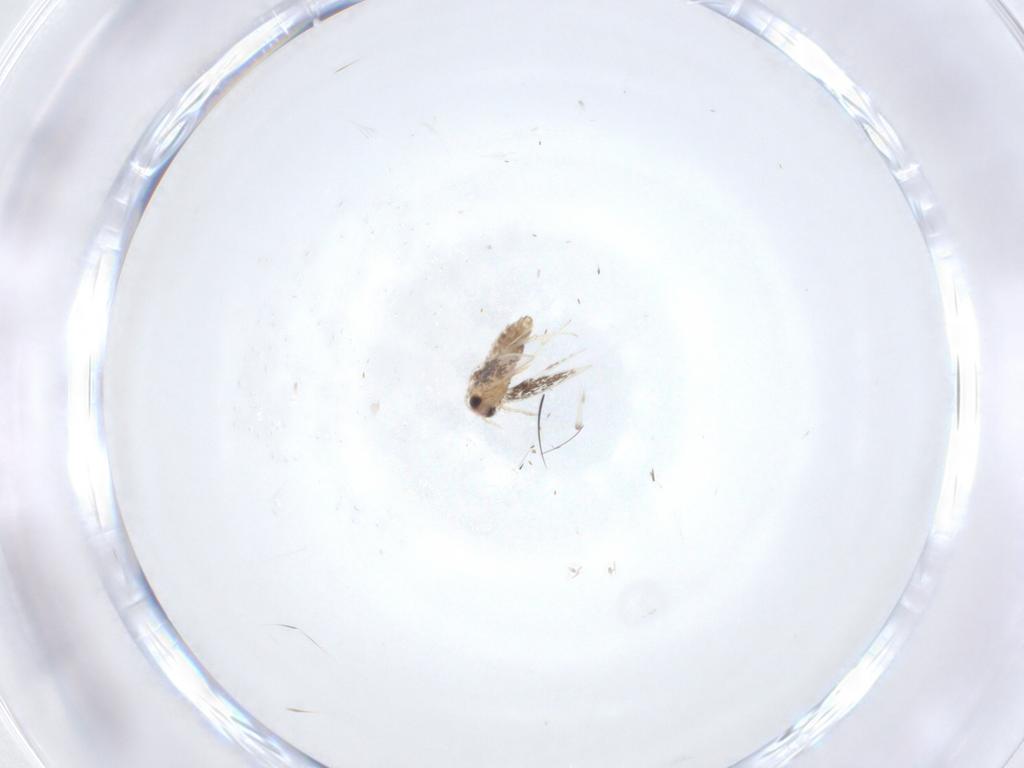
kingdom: Animalia
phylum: Arthropoda
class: Insecta
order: Lepidoptera
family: Nepticulidae
